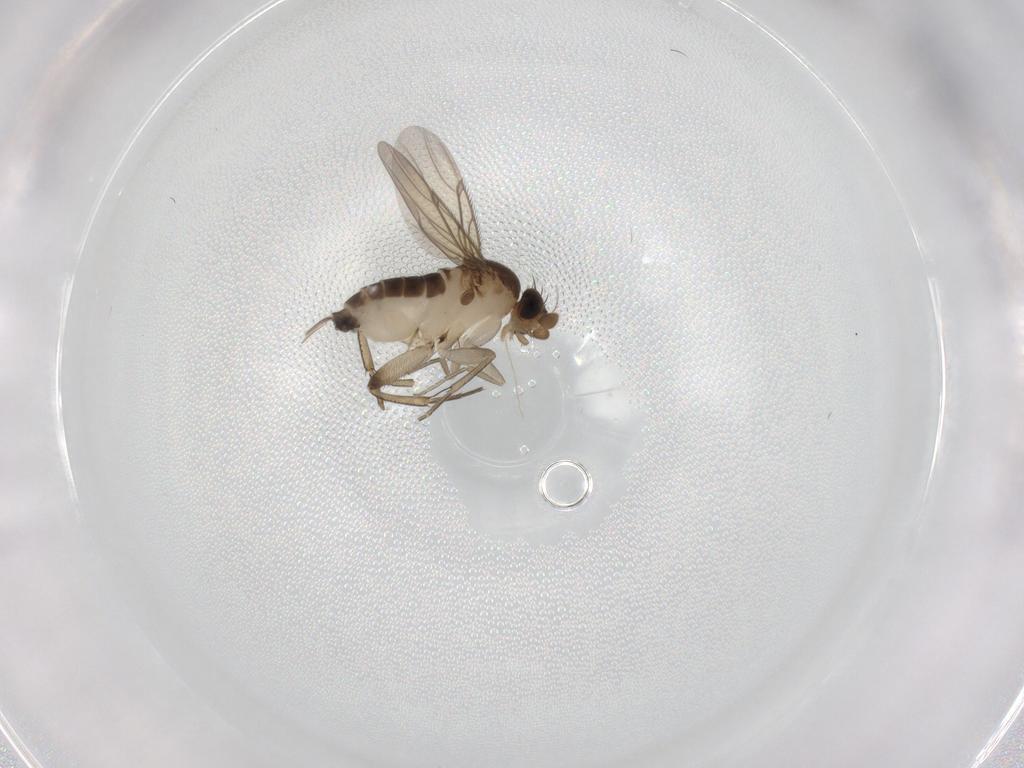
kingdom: Animalia
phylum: Arthropoda
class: Insecta
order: Diptera
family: Phoridae
